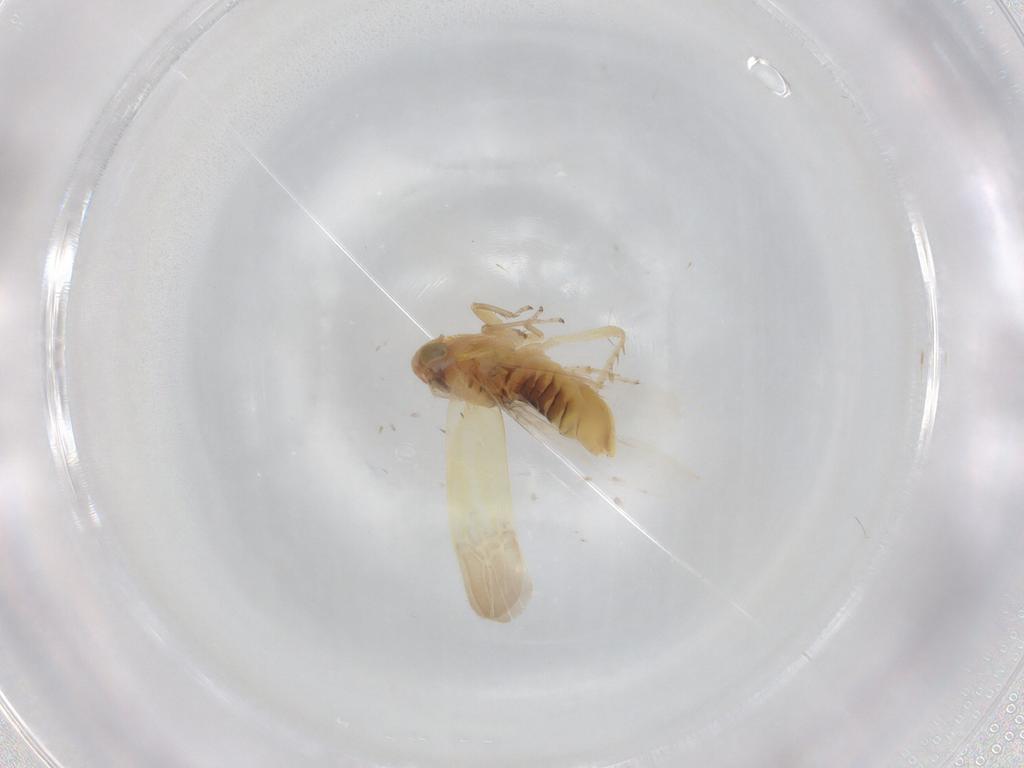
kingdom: Animalia
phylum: Arthropoda
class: Insecta
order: Hemiptera
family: Cicadellidae
